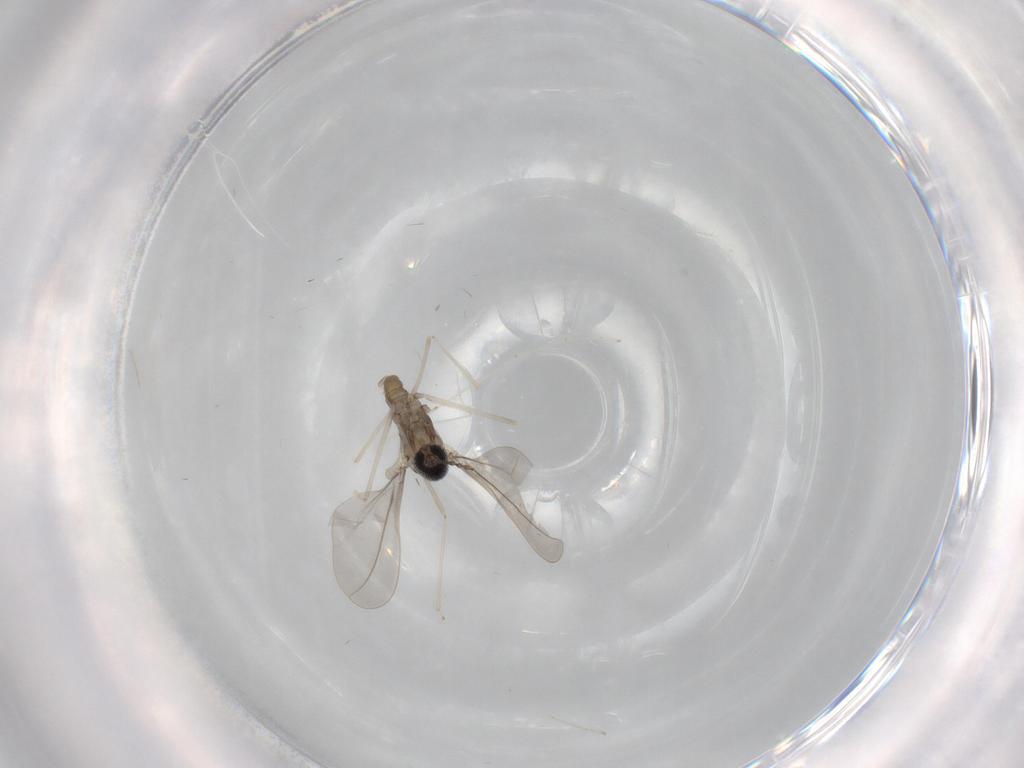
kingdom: Animalia
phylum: Arthropoda
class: Insecta
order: Diptera
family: Cecidomyiidae
